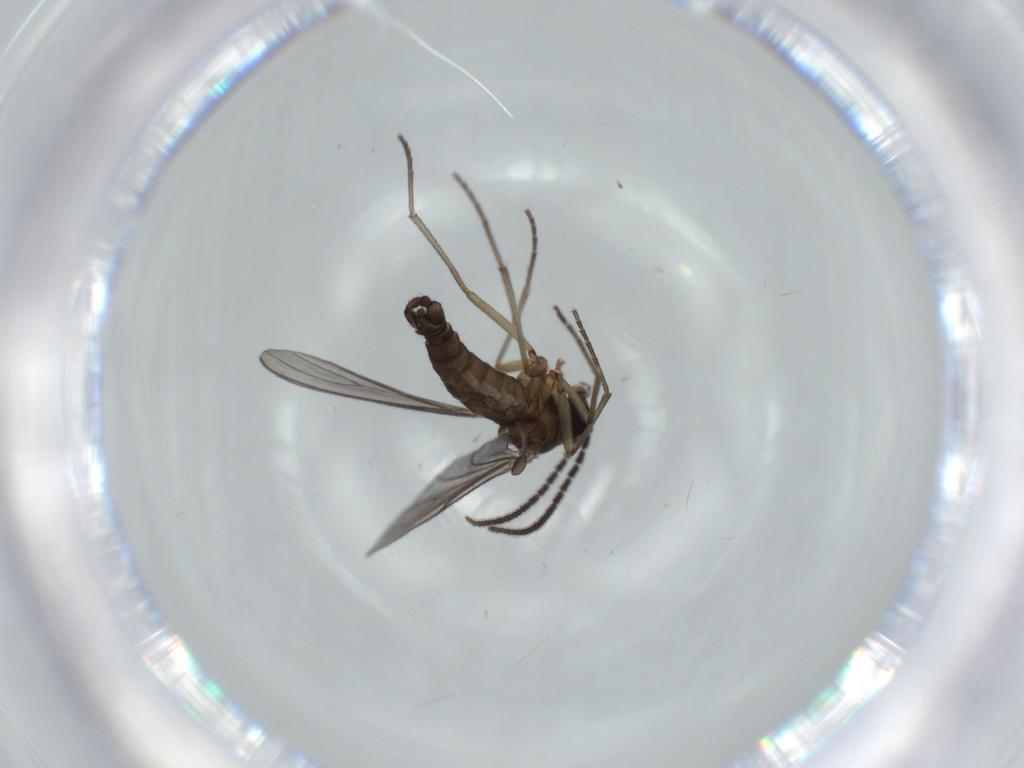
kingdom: Animalia
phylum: Arthropoda
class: Insecta
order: Diptera
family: Sciaridae
